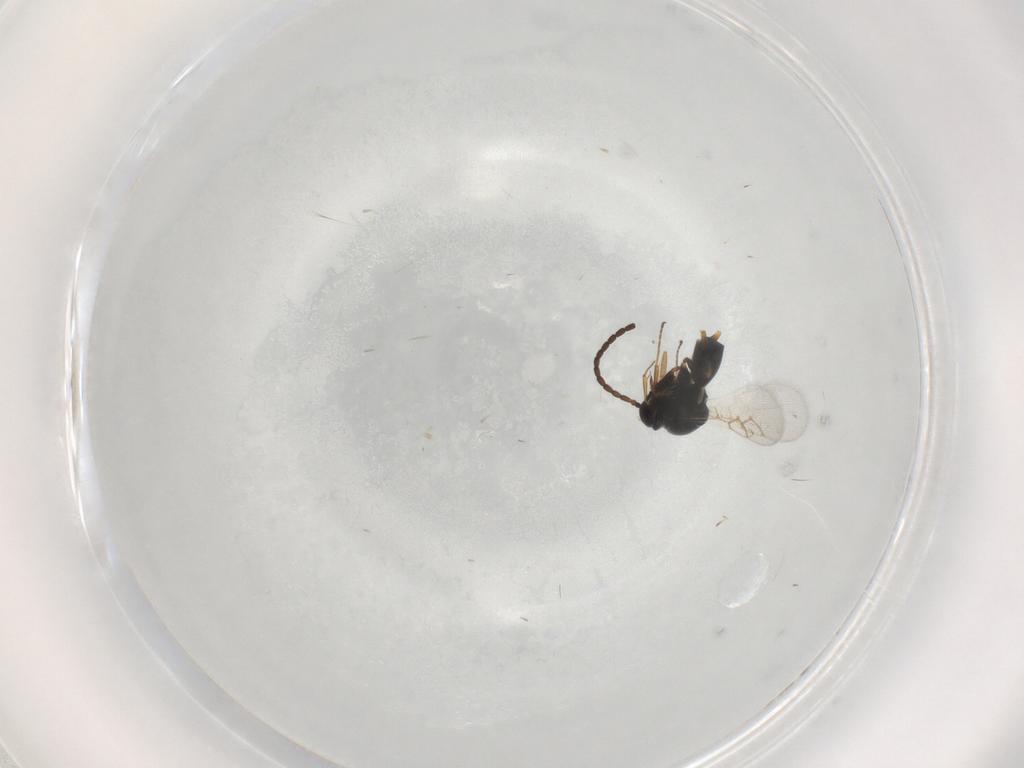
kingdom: Animalia
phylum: Arthropoda
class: Insecta
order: Hymenoptera
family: Figitidae
